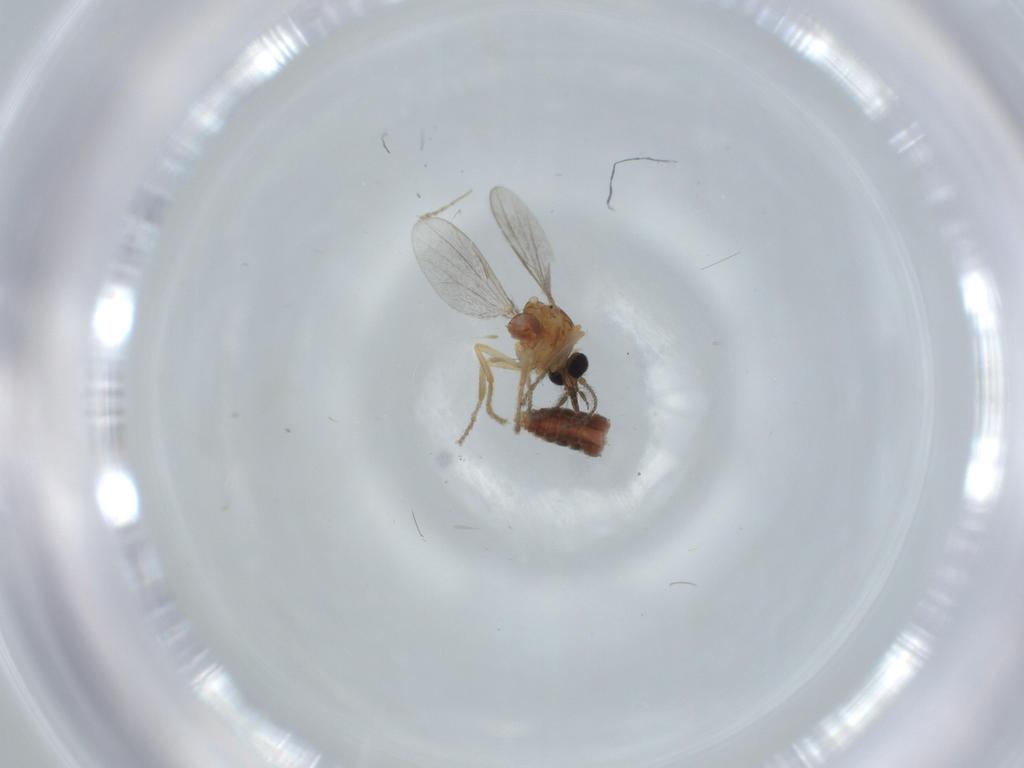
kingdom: Animalia
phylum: Arthropoda
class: Insecta
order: Diptera
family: Ceratopogonidae
